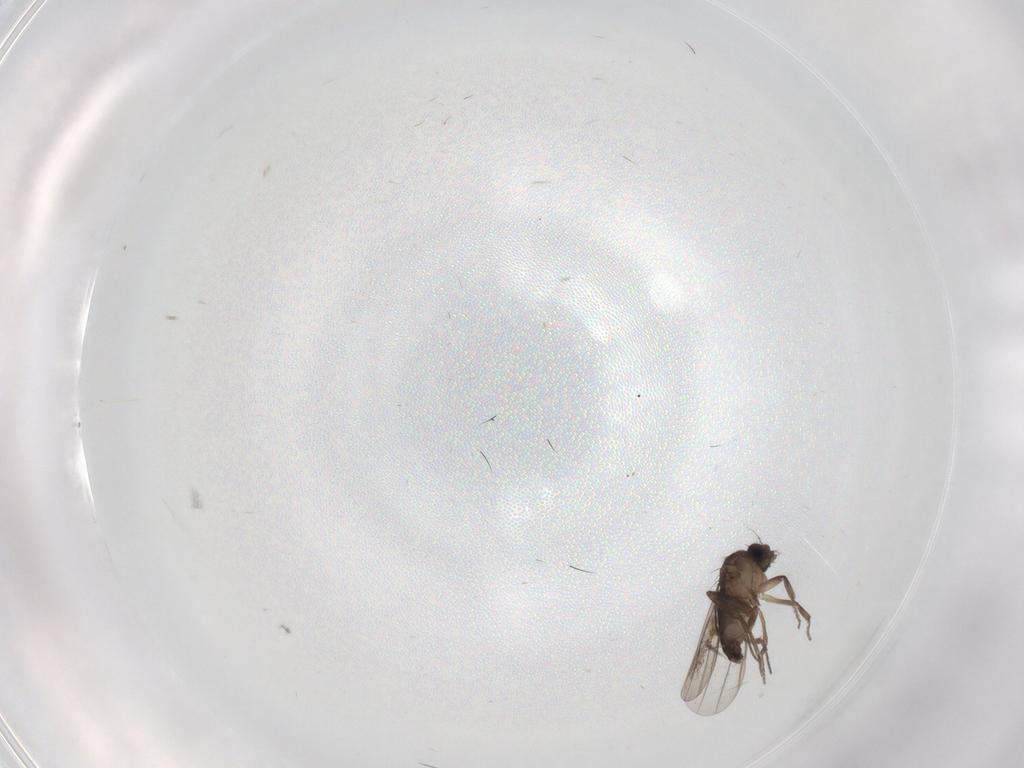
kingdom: Animalia
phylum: Arthropoda
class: Insecta
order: Diptera
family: Phoridae
